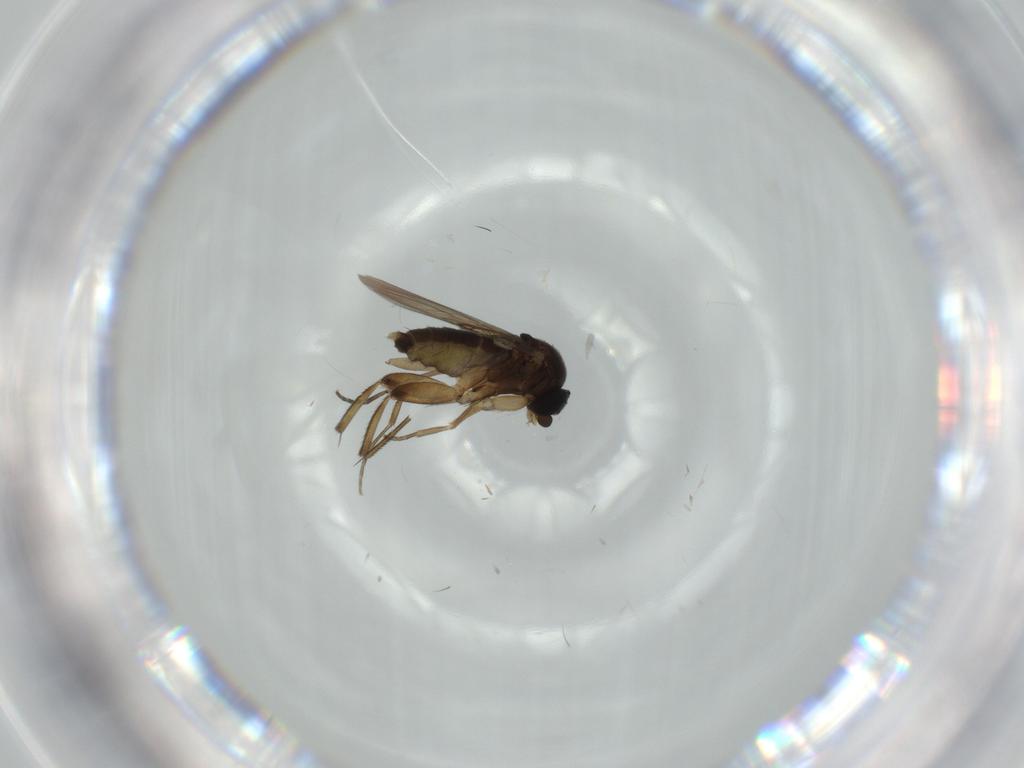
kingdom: Animalia
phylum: Arthropoda
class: Insecta
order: Diptera
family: Phoridae
